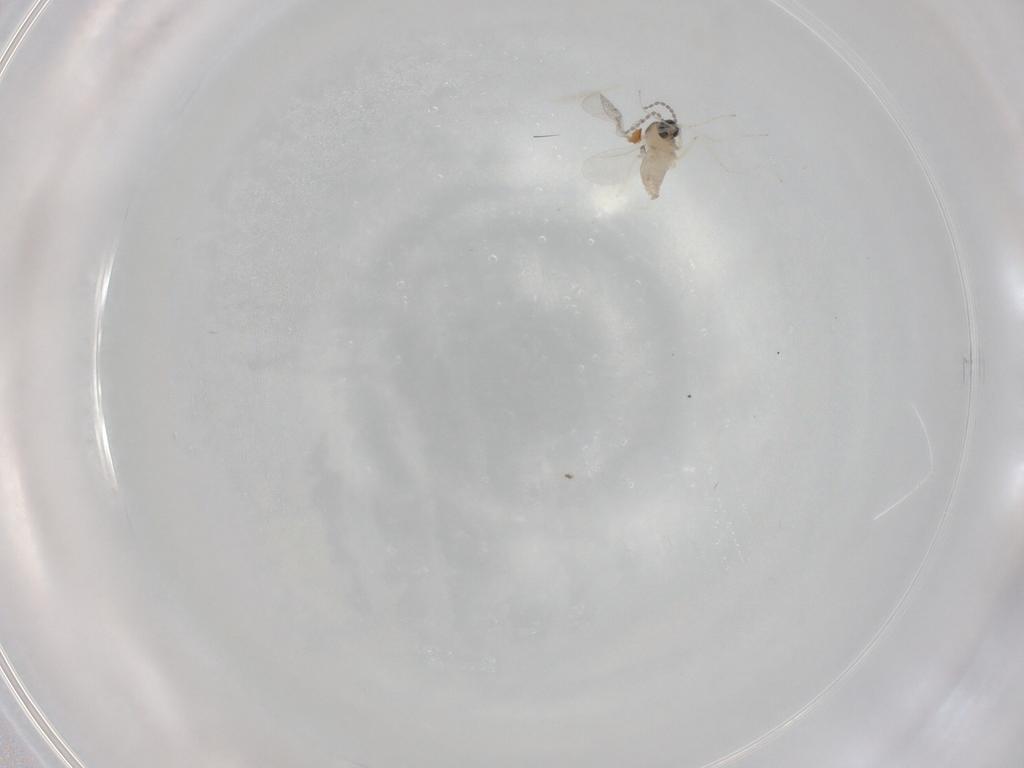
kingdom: Animalia
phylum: Arthropoda
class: Insecta
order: Diptera
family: Cecidomyiidae
